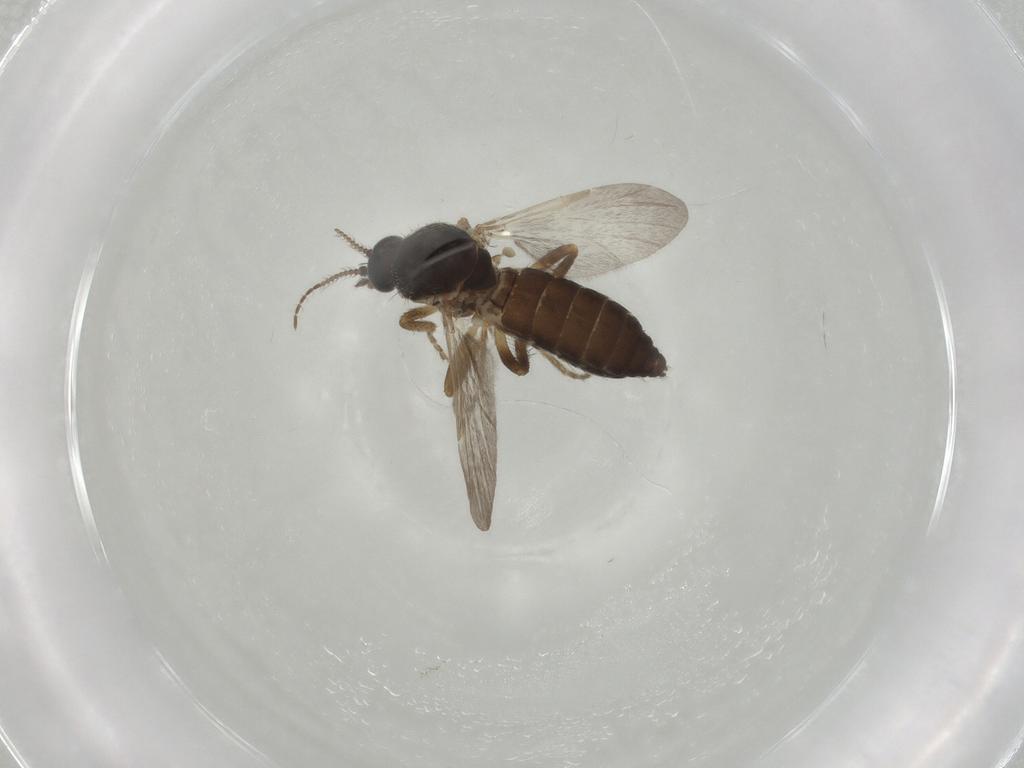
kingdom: Animalia
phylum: Arthropoda
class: Insecta
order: Diptera
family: Ceratopogonidae
